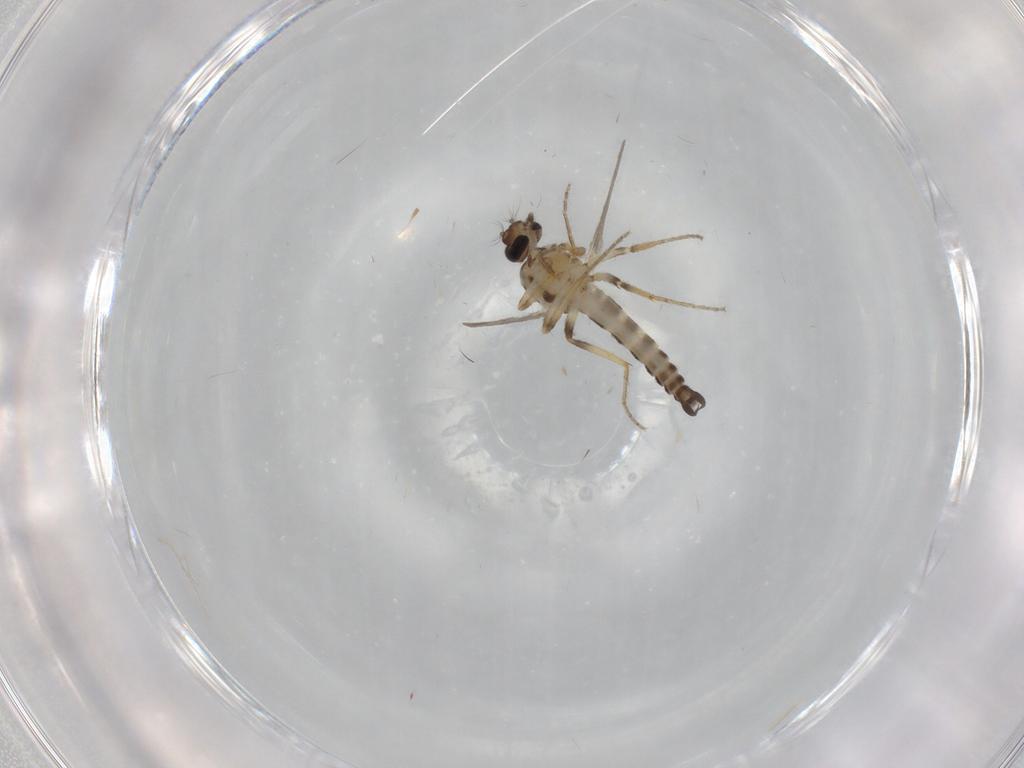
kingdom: Animalia
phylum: Arthropoda
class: Insecta
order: Diptera
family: Ceratopogonidae
